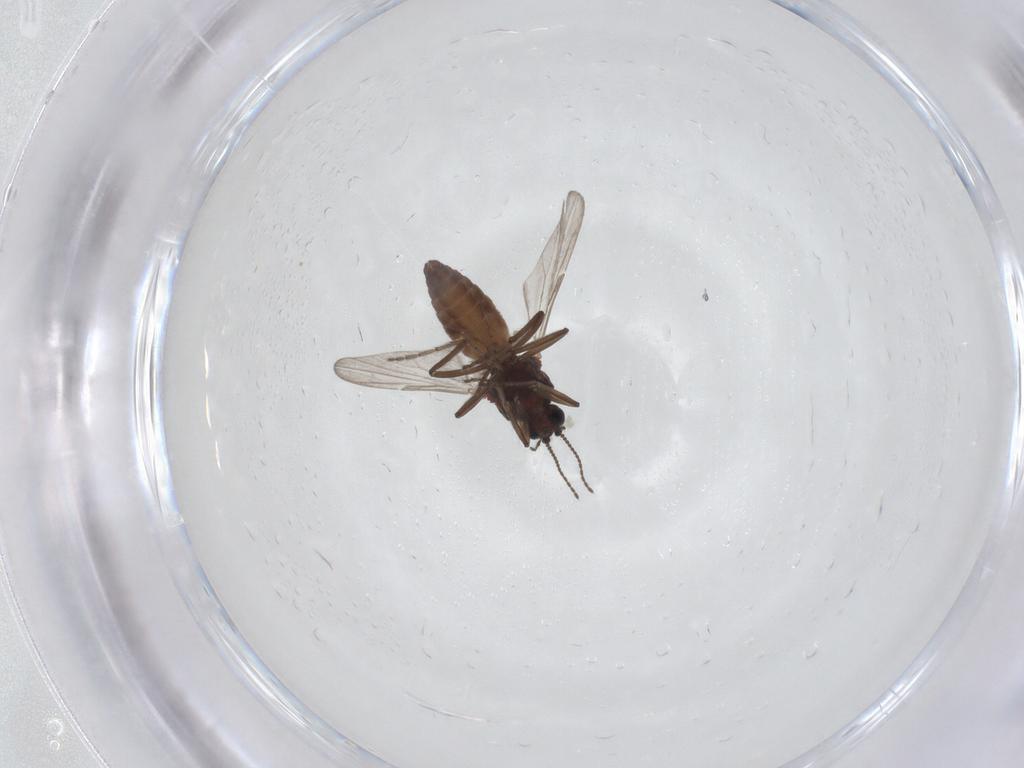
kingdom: Animalia
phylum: Arthropoda
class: Insecta
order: Diptera
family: Ceratopogonidae
